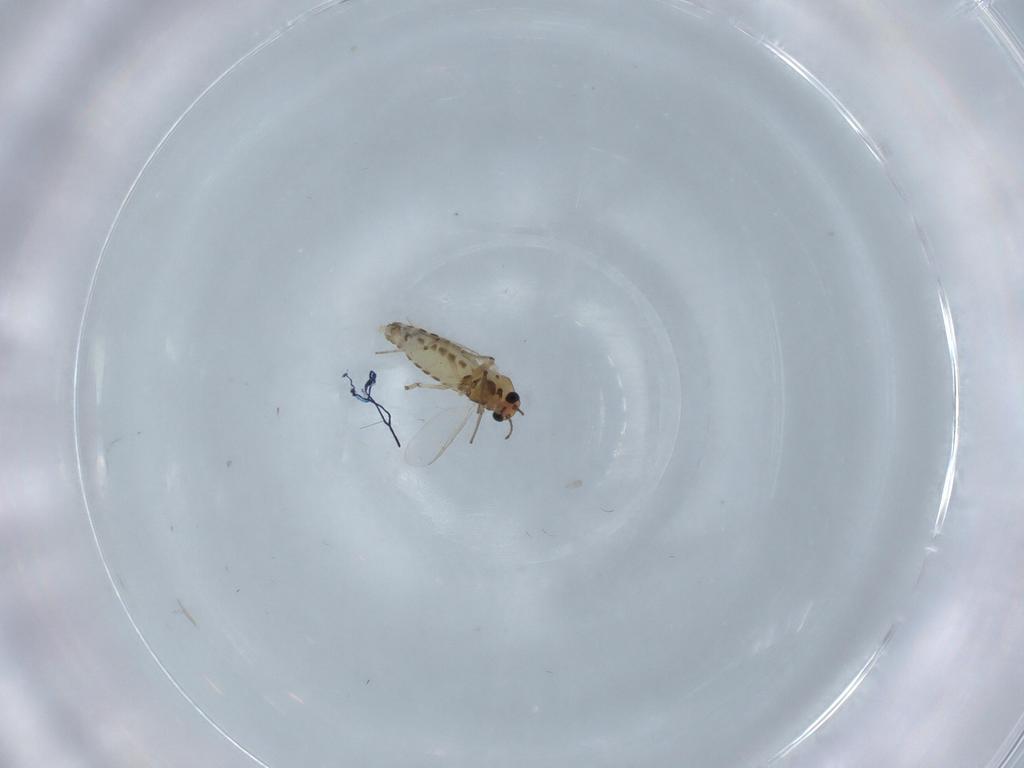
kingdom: Animalia
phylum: Arthropoda
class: Insecta
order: Diptera
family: Chironomidae
